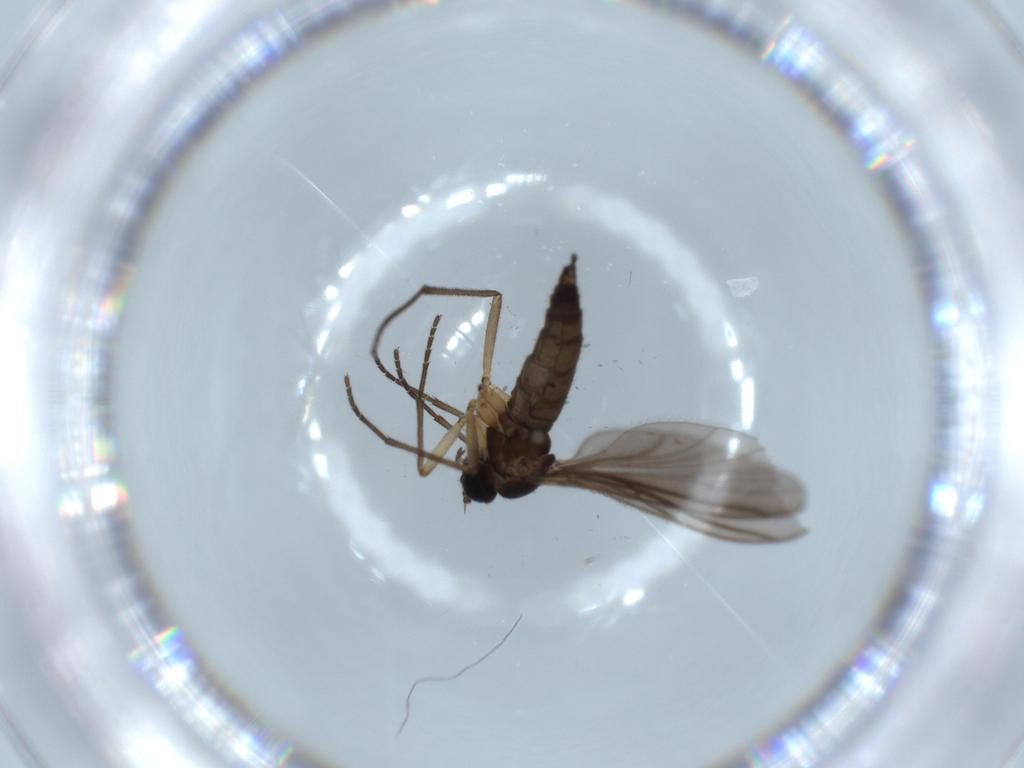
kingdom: Animalia
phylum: Arthropoda
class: Insecta
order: Diptera
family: Sciaridae
